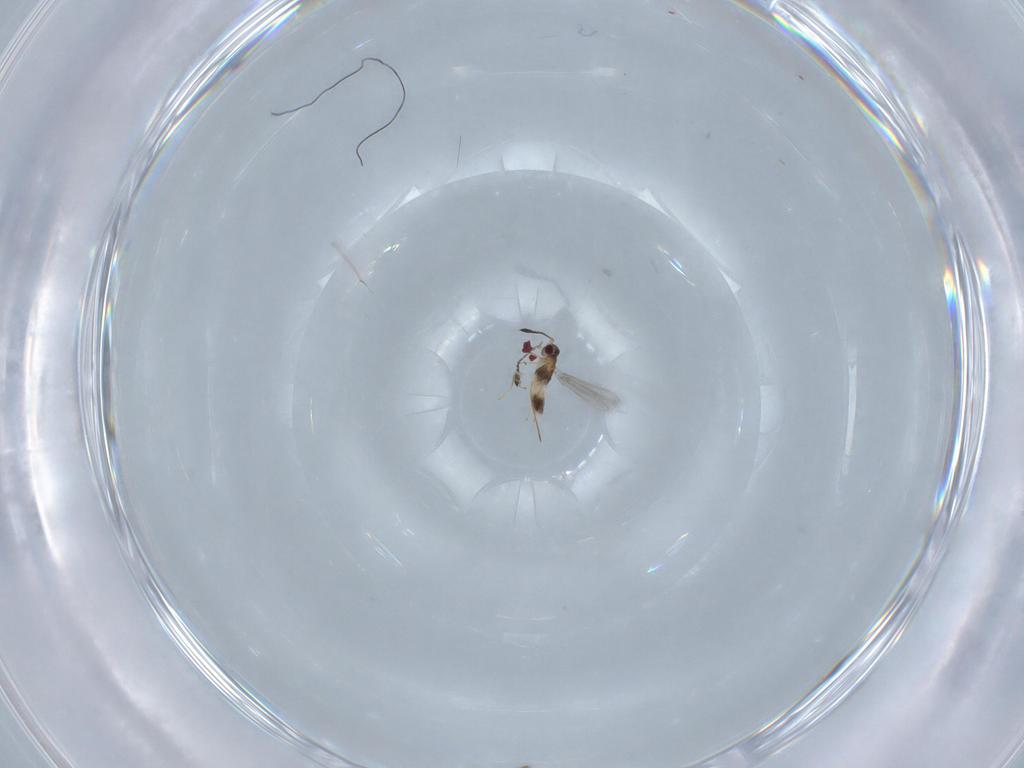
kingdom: Animalia
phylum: Arthropoda
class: Insecta
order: Hymenoptera
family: Mymaridae
